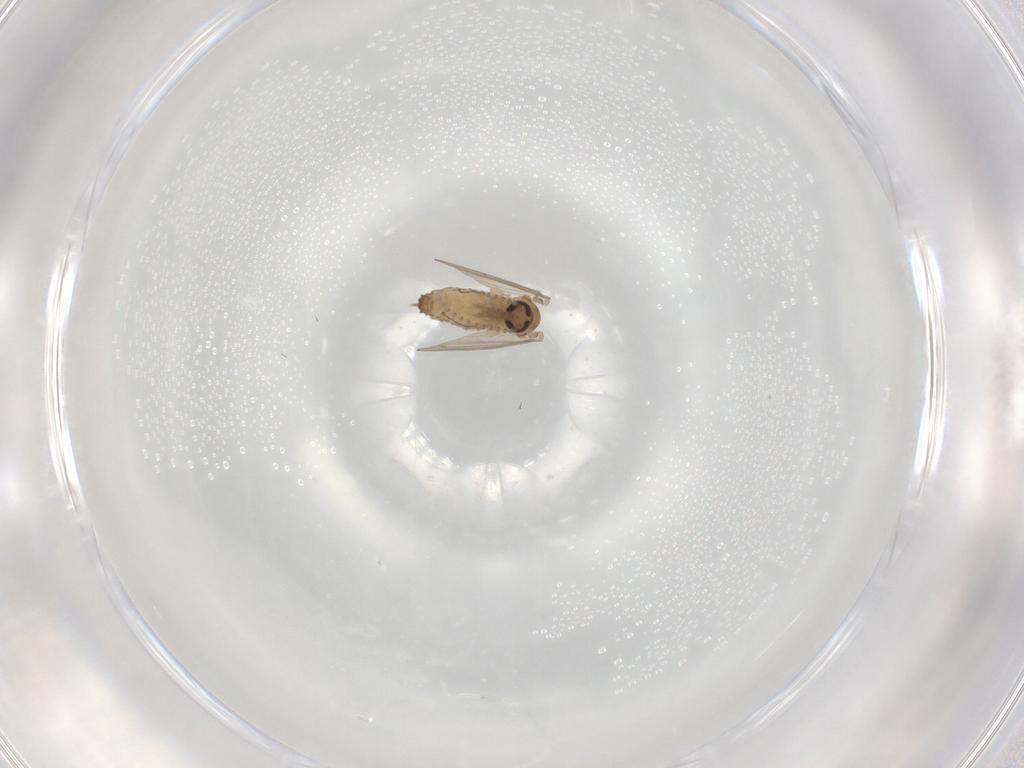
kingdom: Animalia
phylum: Arthropoda
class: Insecta
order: Diptera
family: Psychodidae
